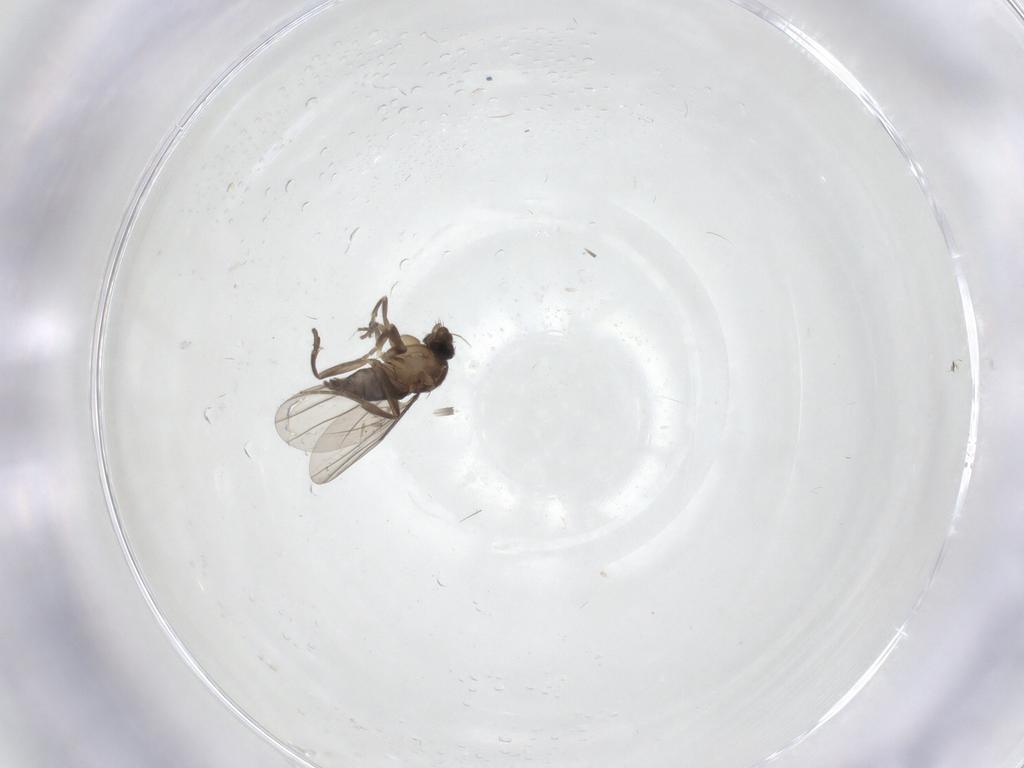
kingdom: Animalia
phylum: Arthropoda
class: Insecta
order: Diptera
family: Phoridae
